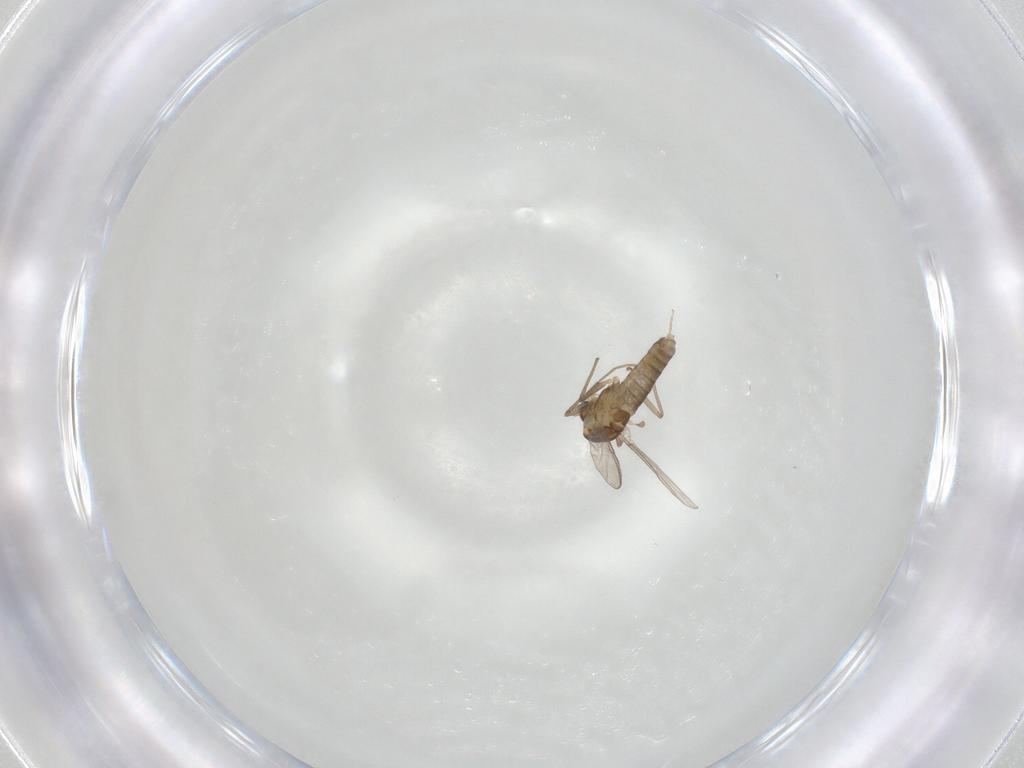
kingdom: Animalia
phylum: Arthropoda
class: Insecta
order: Diptera
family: Chironomidae
